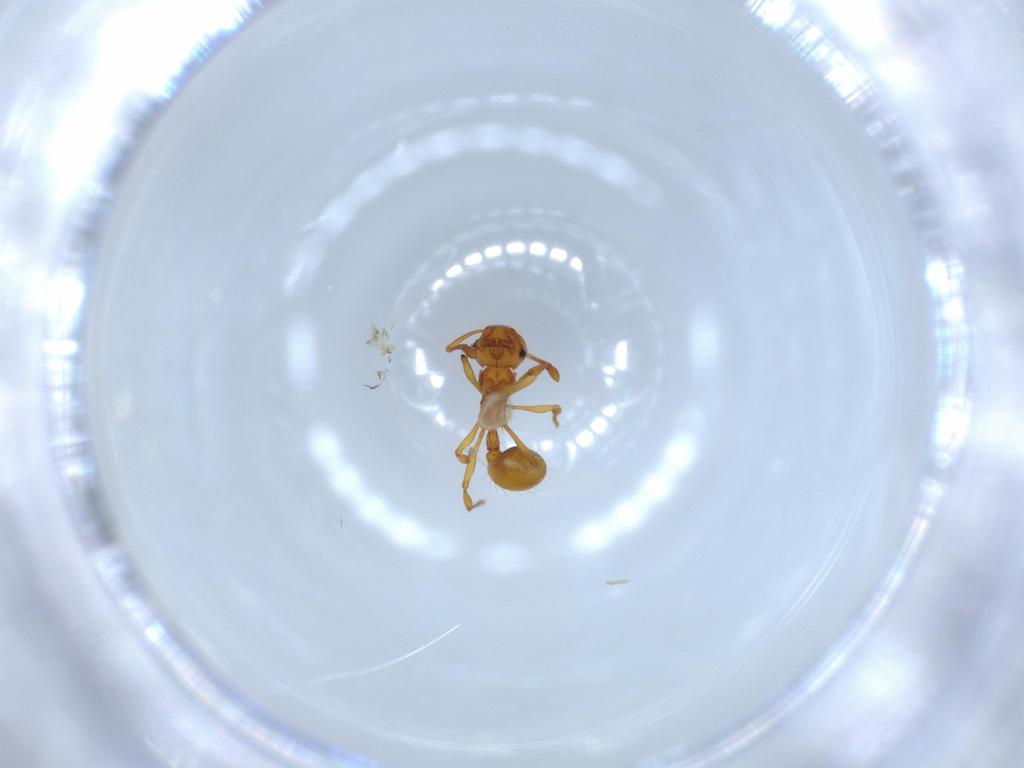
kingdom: Animalia
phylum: Arthropoda
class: Insecta
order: Hymenoptera
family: Formicidae
